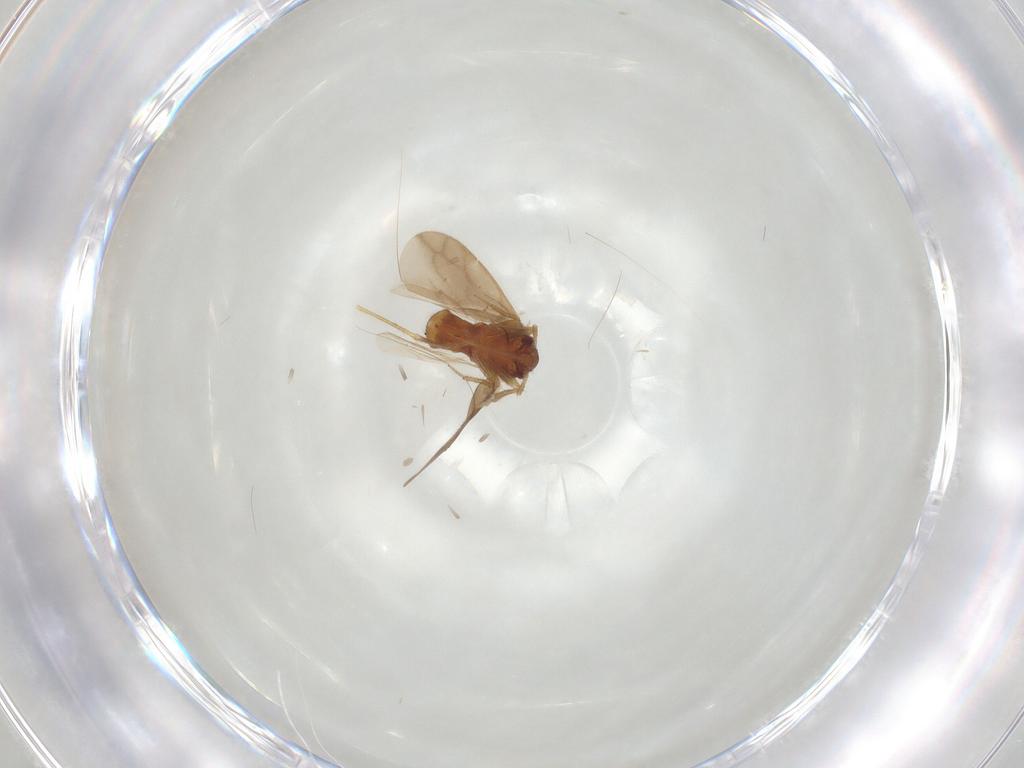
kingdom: Animalia
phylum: Arthropoda
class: Insecta
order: Hemiptera
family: Ceratocombidae
